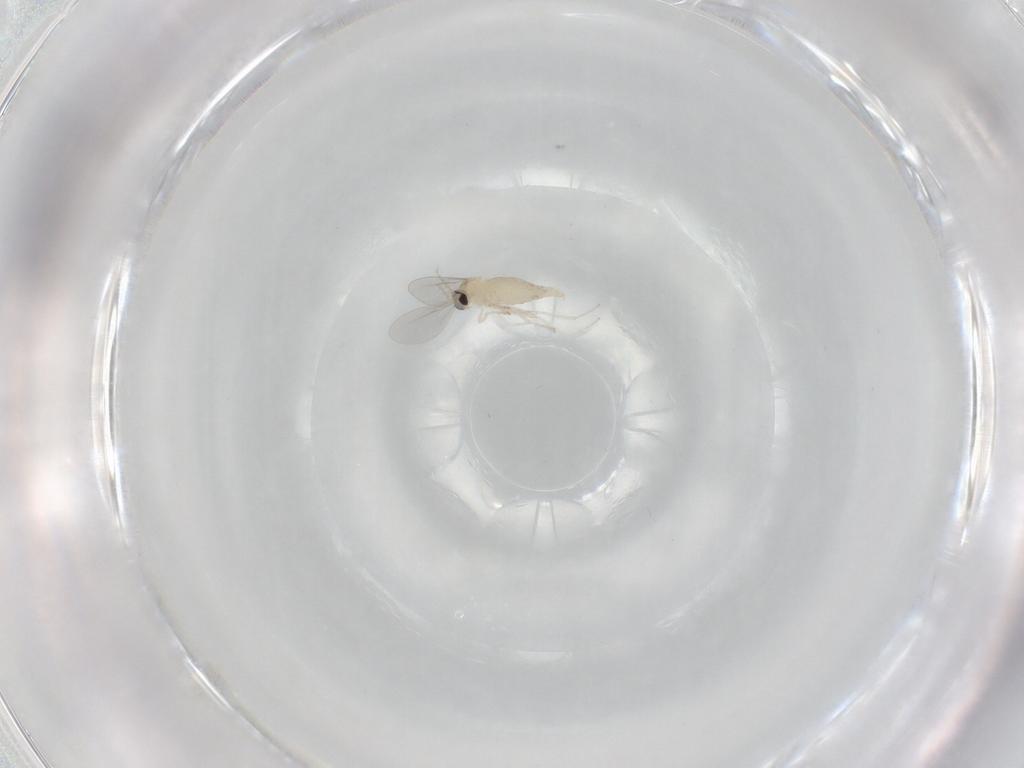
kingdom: Animalia
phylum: Arthropoda
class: Insecta
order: Diptera
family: Cecidomyiidae
